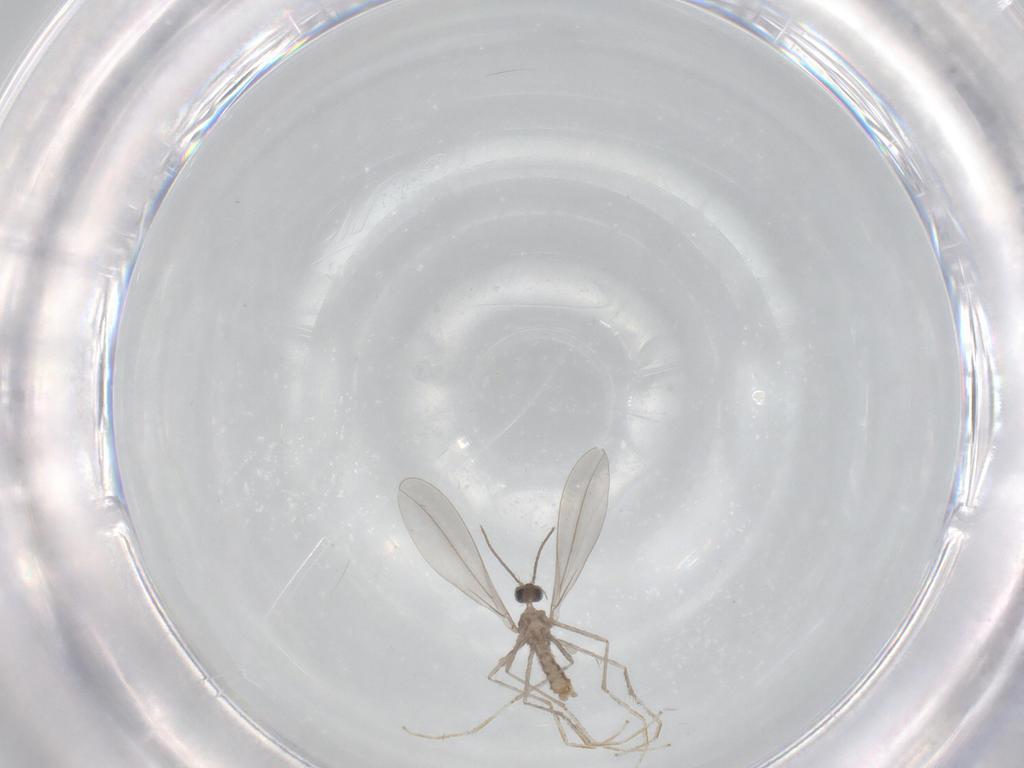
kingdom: Animalia
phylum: Arthropoda
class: Insecta
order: Diptera
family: Cecidomyiidae
